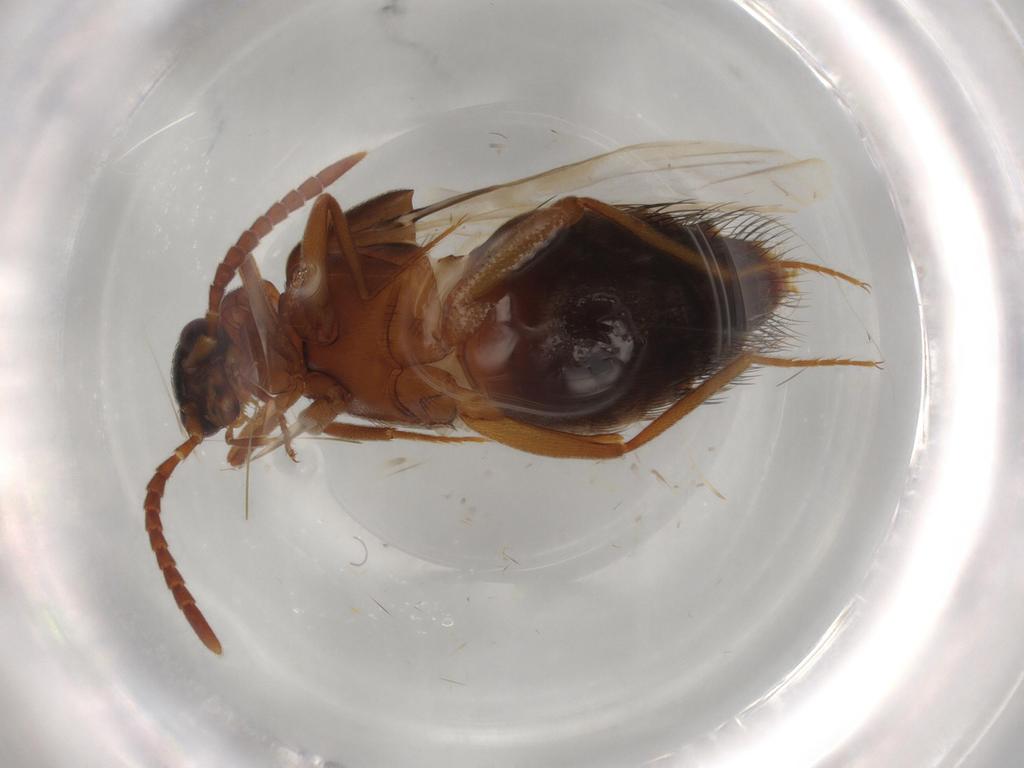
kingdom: Animalia
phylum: Arthropoda
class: Insecta
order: Coleoptera
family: Staphylinidae
